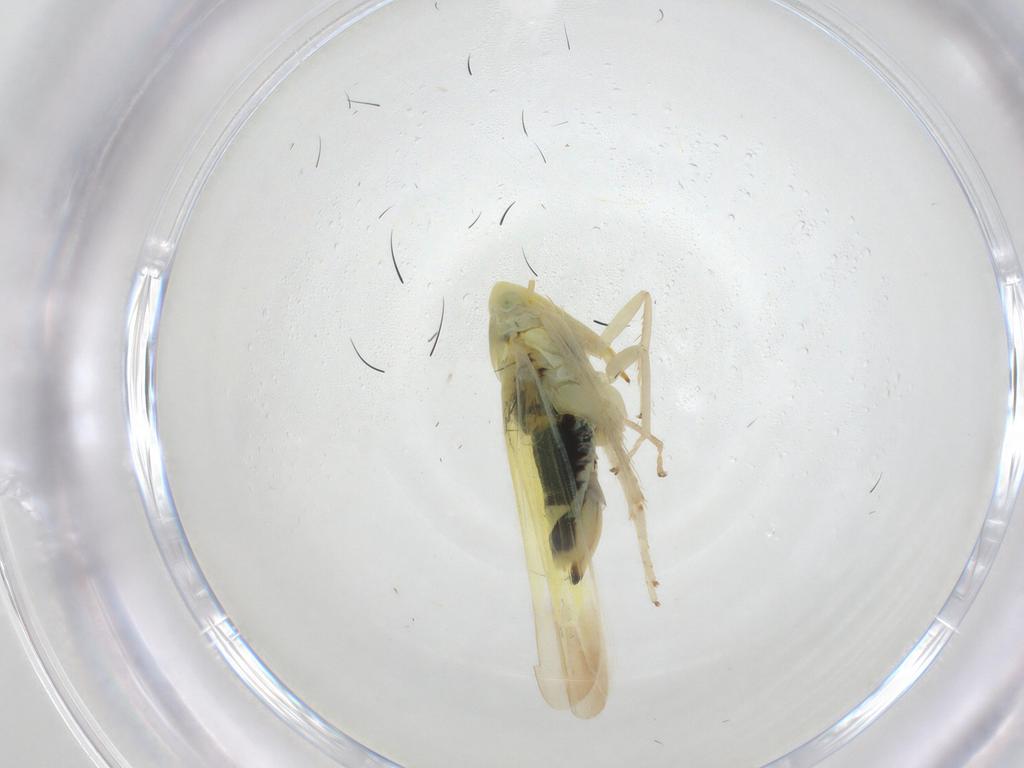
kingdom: Animalia
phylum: Arthropoda
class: Insecta
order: Hemiptera
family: Cicadellidae
